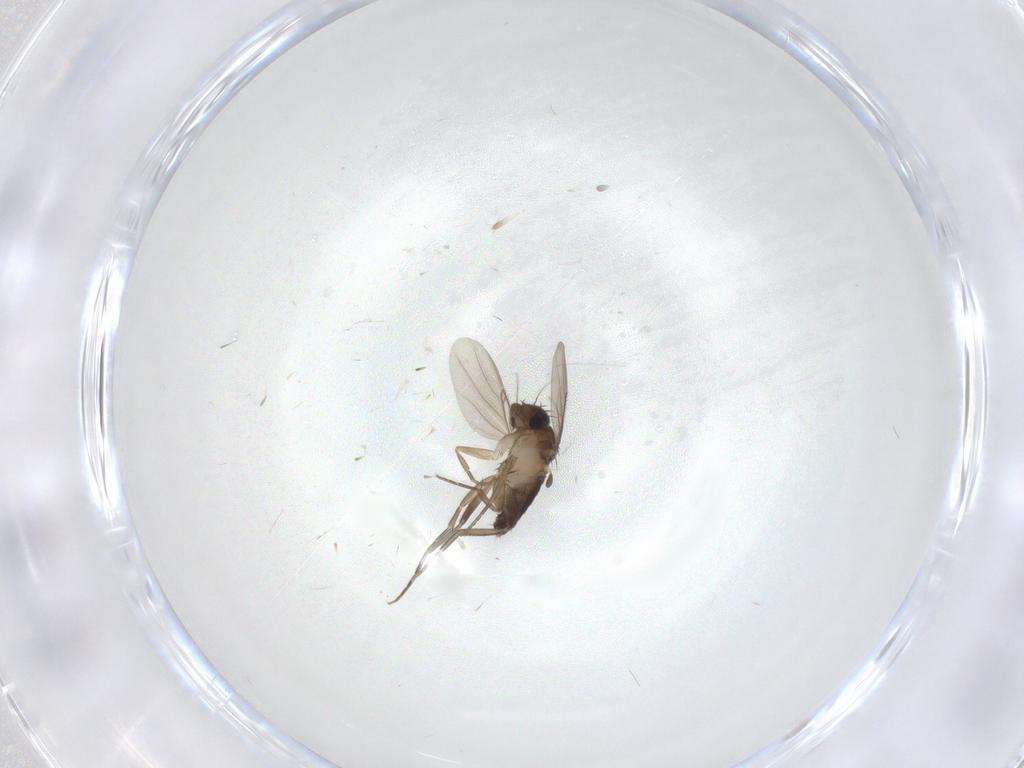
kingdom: Animalia
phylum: Arthropoda
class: Insecta
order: Diptera
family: Phoridae
